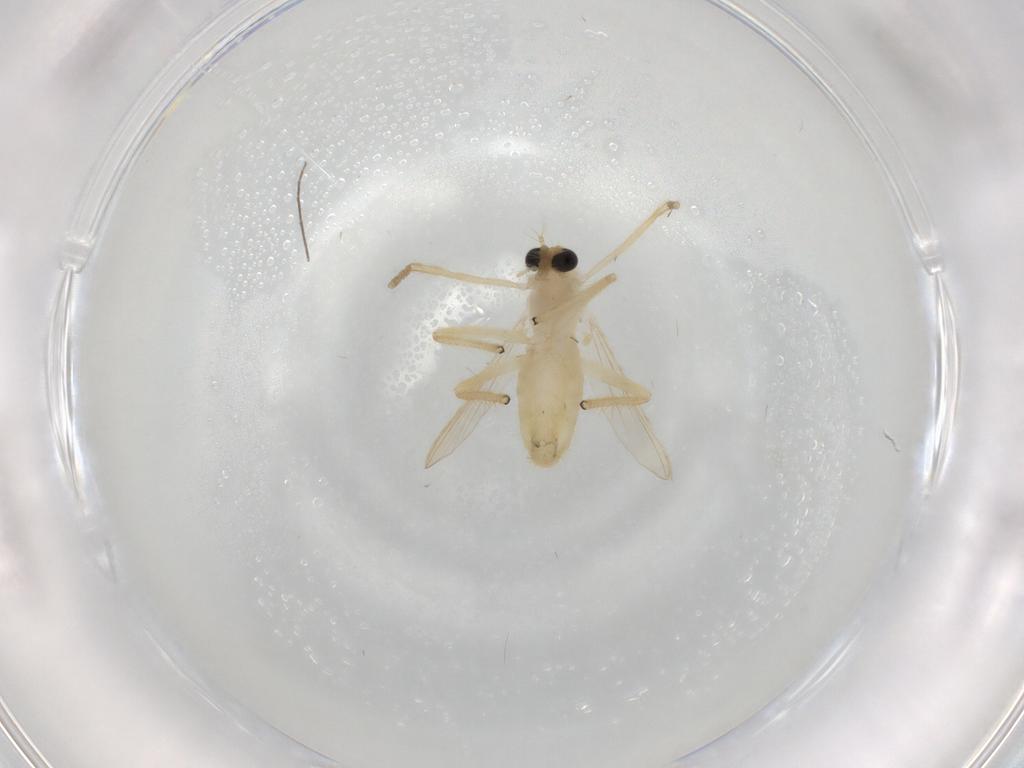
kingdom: Animalia
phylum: Arthropoda
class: Insecta
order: Diptera
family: Chironomidae
